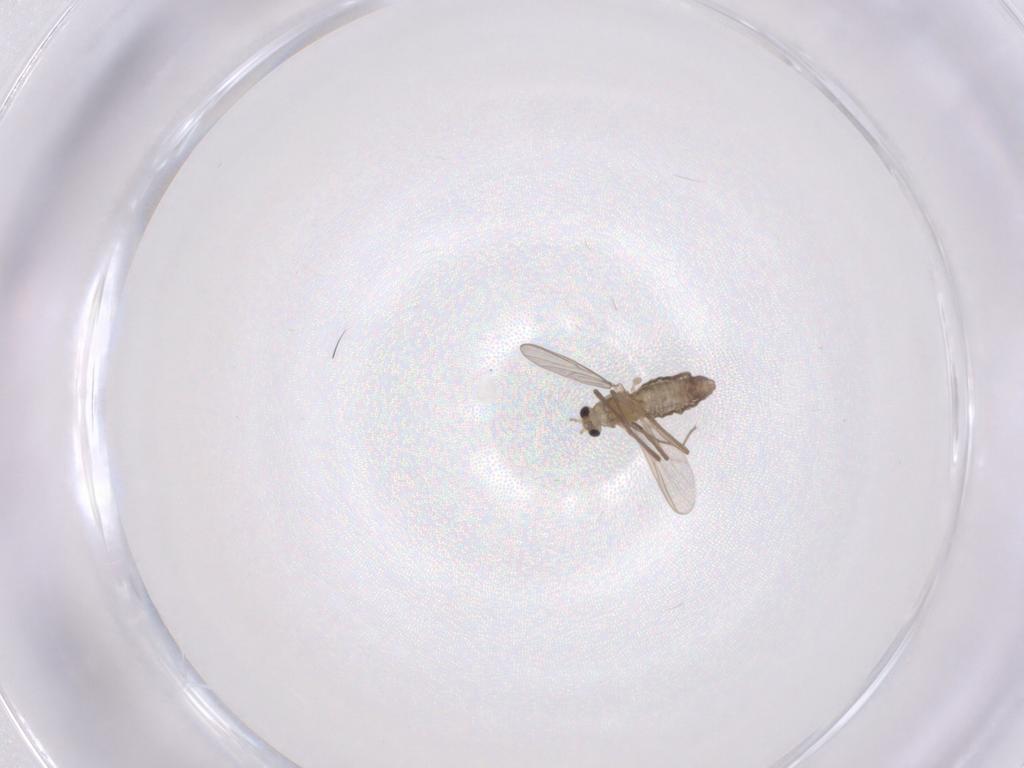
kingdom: Animalia
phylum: Arthropoda
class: Insecta
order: Diptera
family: Chironomidae
